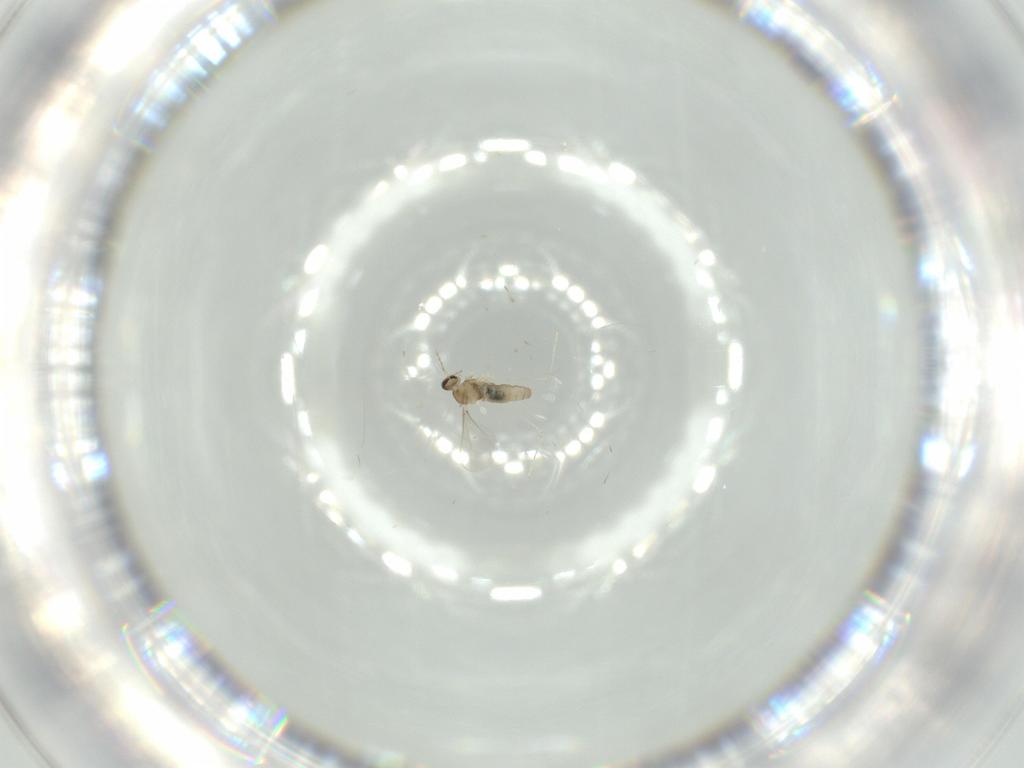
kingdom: Animalia
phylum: Arthropoda
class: Insecta
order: Diptera
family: Cecidomyiidae
